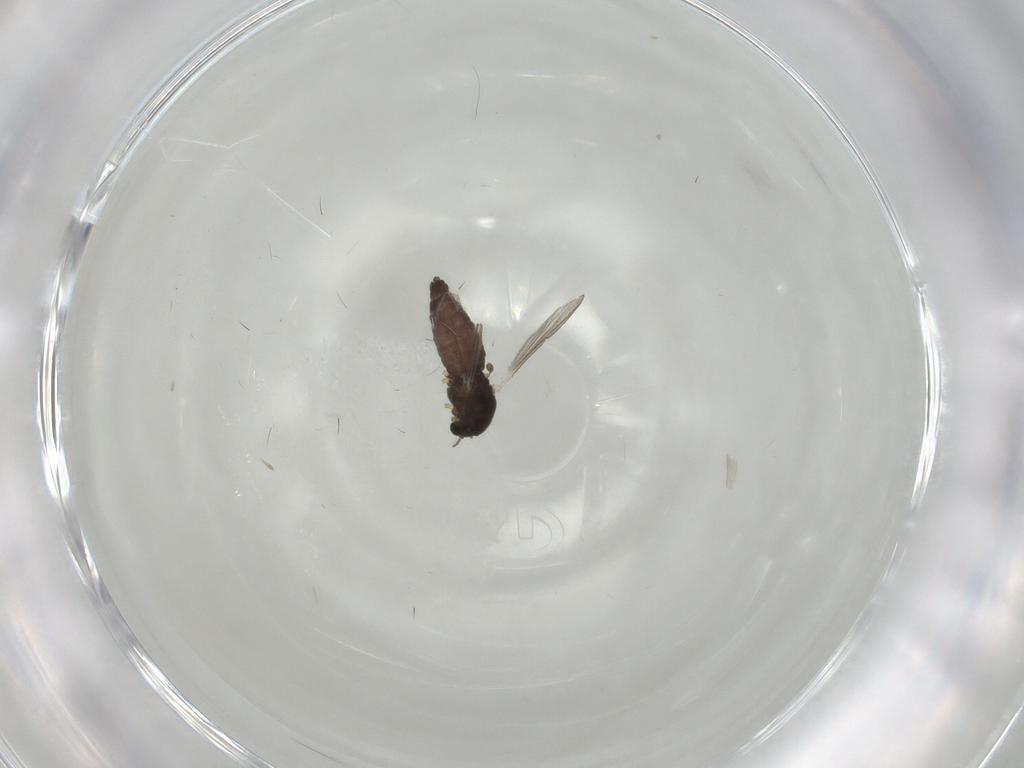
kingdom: Animalia
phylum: Arthropoda
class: Insecta
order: Diptera
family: Chironomidae
